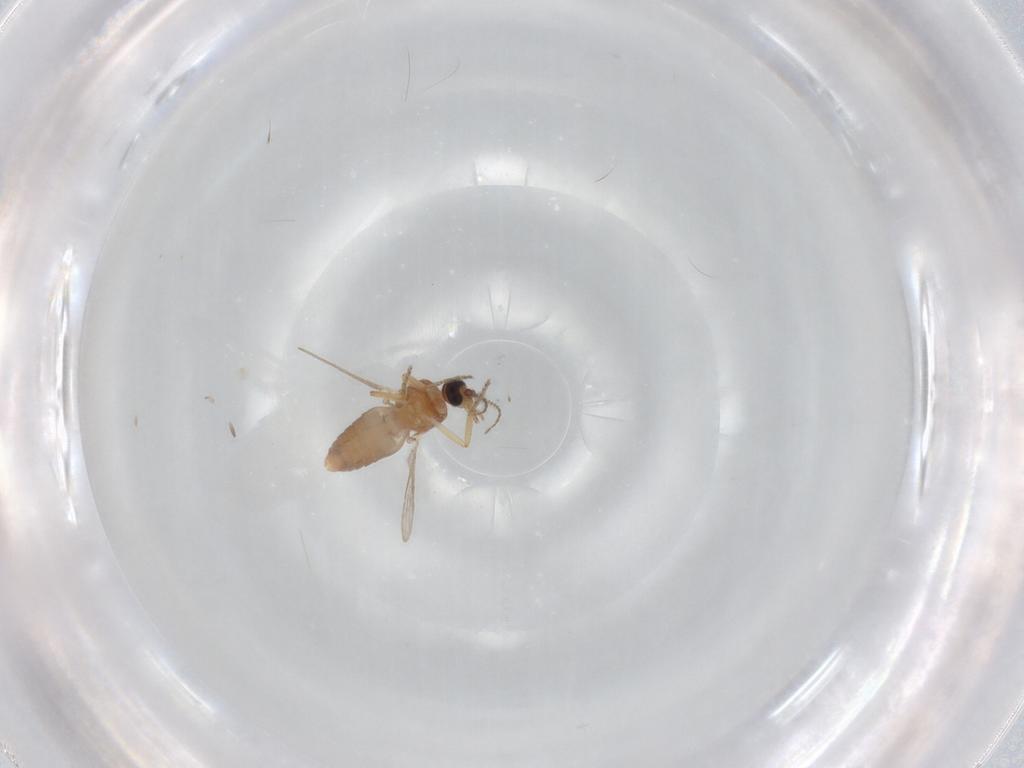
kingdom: Animalia
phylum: Arthropoda
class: Insecta
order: Diptera
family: Ceratopogonidae
